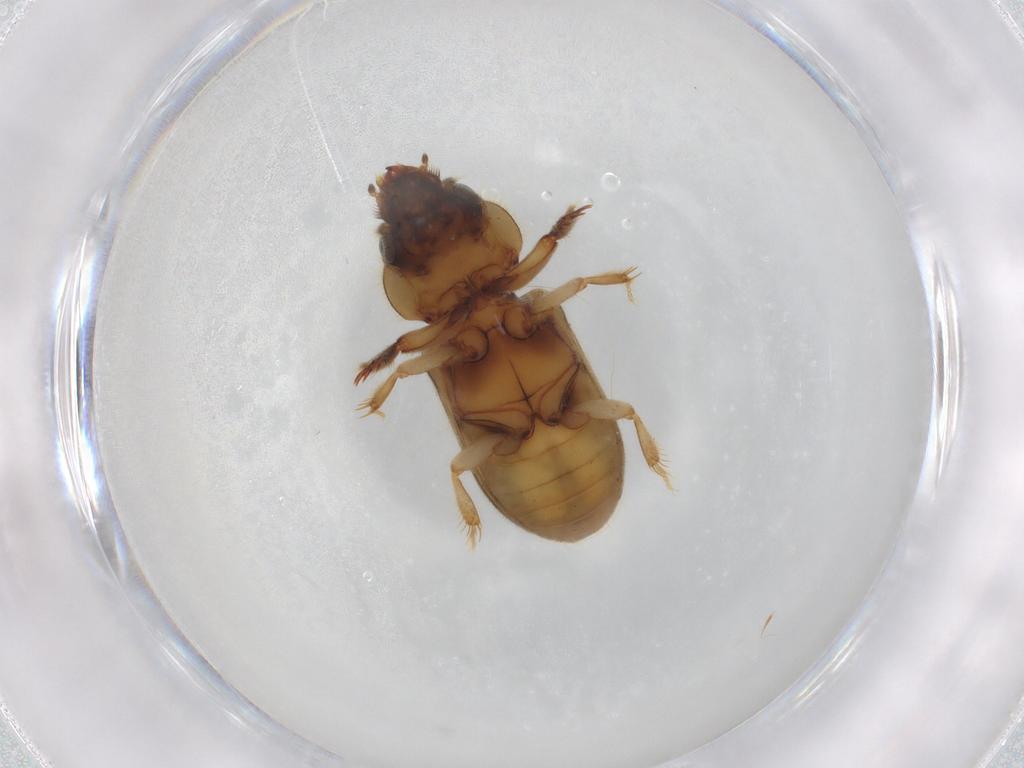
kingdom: Animalia
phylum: Arthropoda
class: Insecta
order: Coleoptera
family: Heteroceridae
